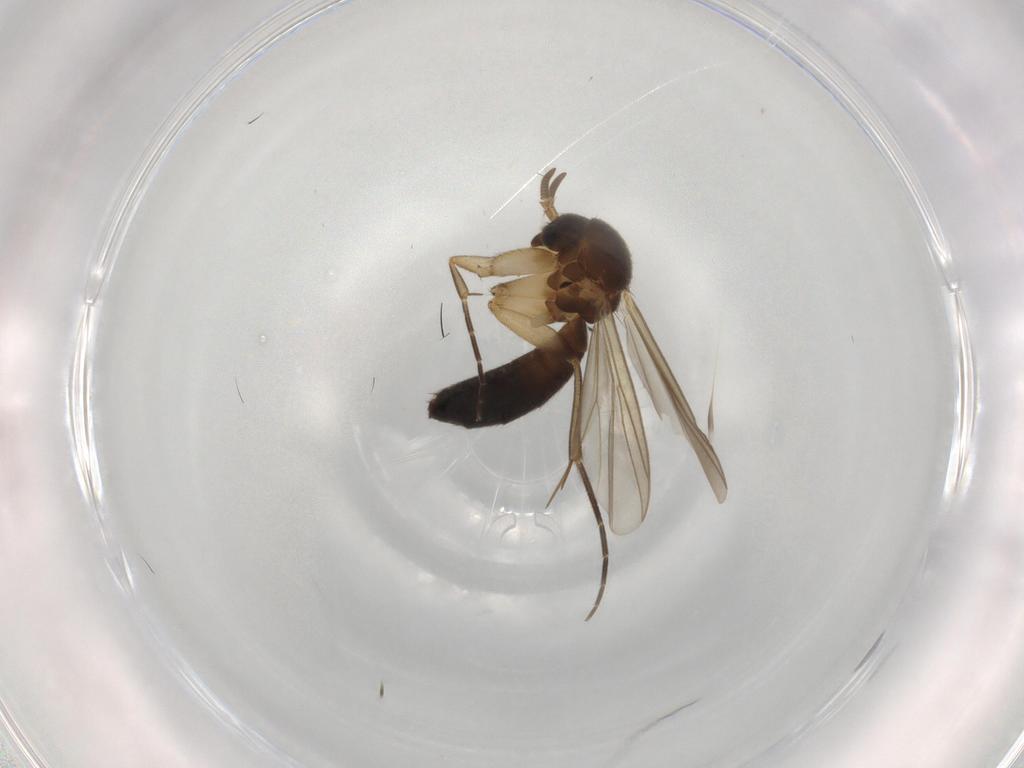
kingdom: Animalia
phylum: Arthropoda
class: Insecta
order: Diptera
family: Mycetophilidae
